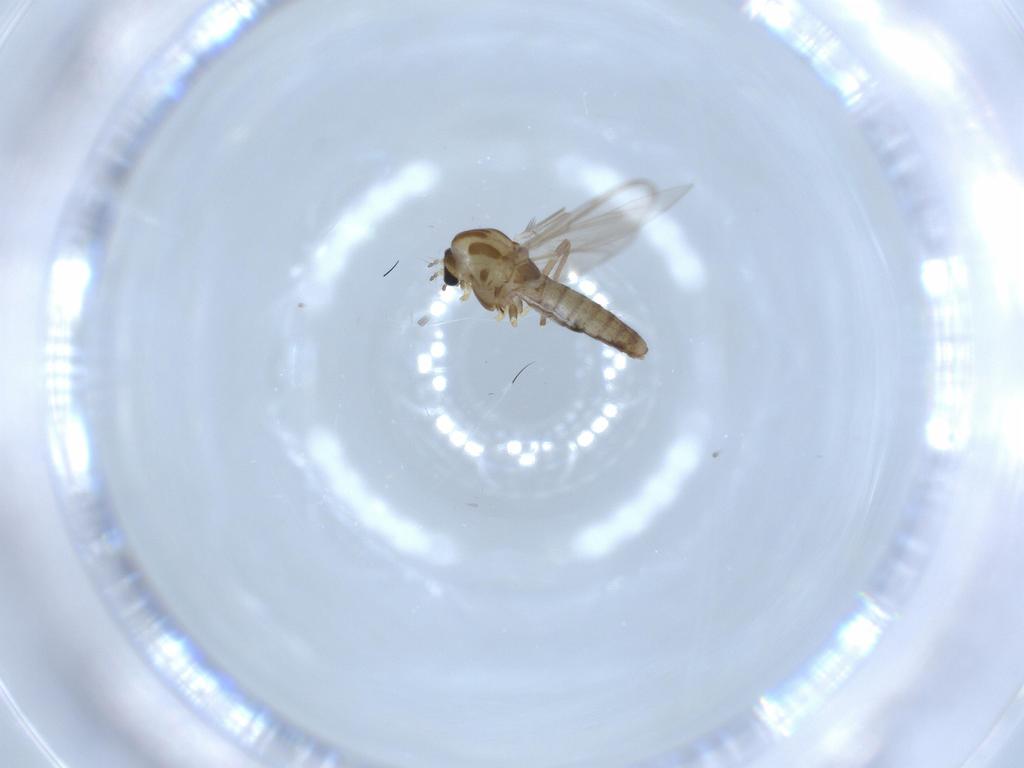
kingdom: Animalia
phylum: Arthropoda
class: Insecta
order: Diptera
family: Chironomidae
